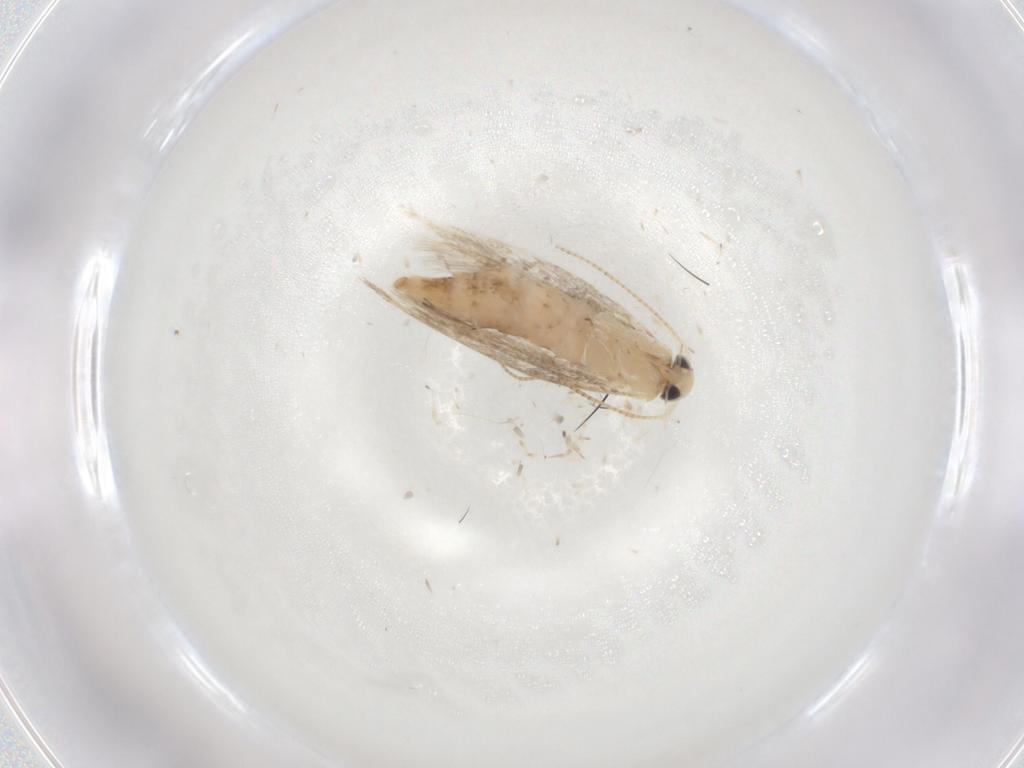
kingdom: Animalia
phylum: Arthropoda
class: Insecta
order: Lepidoptera
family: Gracillariidae
